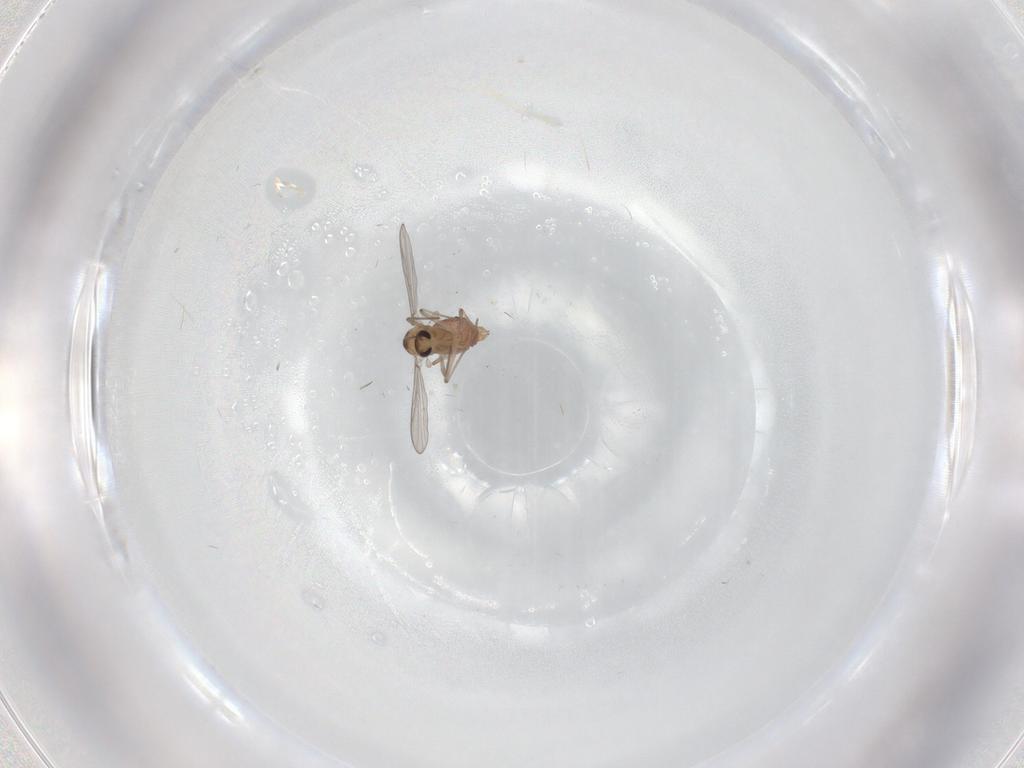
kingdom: Animalia
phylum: Arthropoda
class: Insecta
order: Diptera
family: Chironomidae
